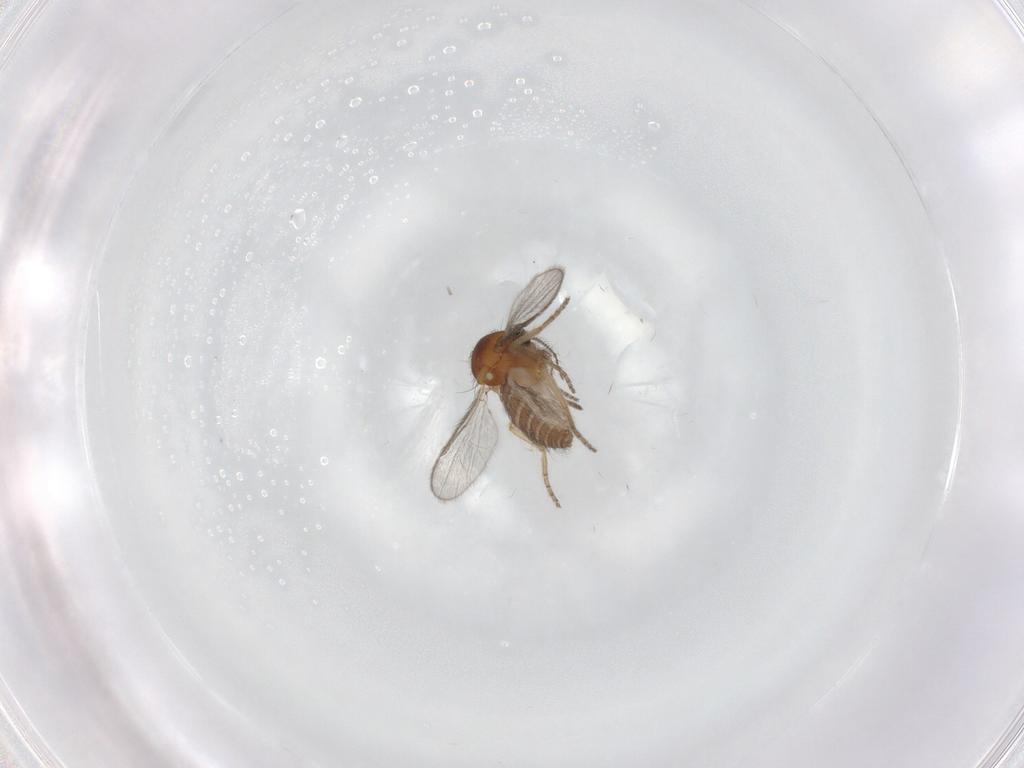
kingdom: Animalia
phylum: Arthropoda
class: Insecta
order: Diptera
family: Ceratopogonidae
